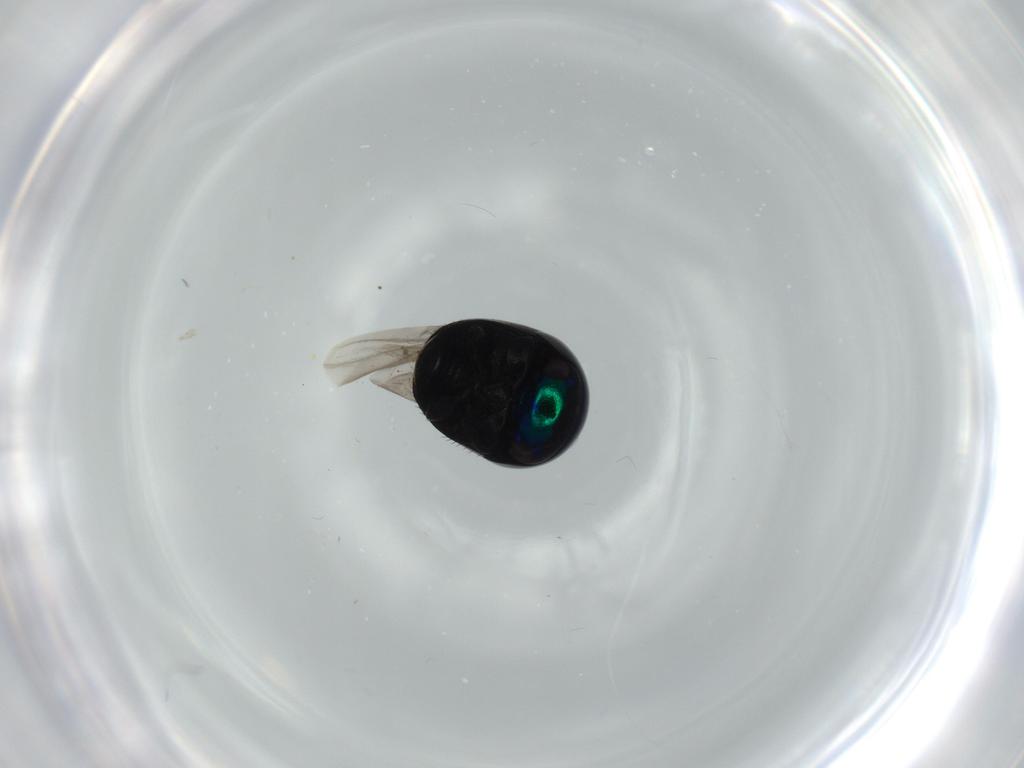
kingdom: Animalia
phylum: Arthropoda
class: Insecta
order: Coleoptera
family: Cybocephalidae
